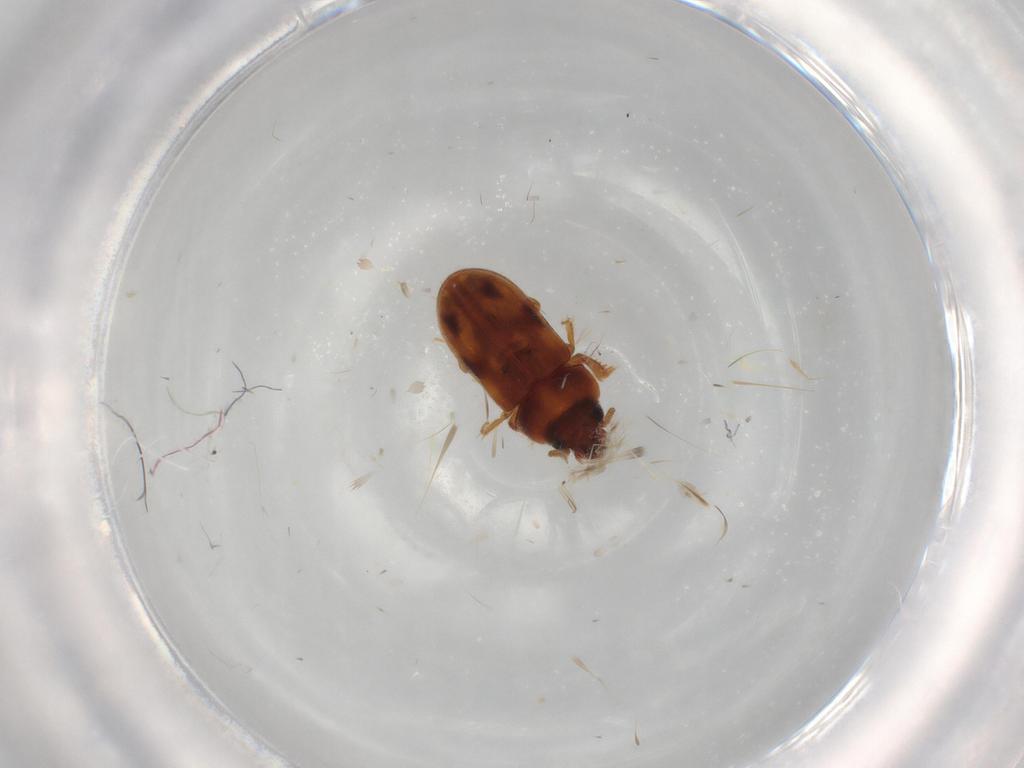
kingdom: Animalia
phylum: Arthropoda
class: Insecta
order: Coleoptera
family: Heteroceridae
